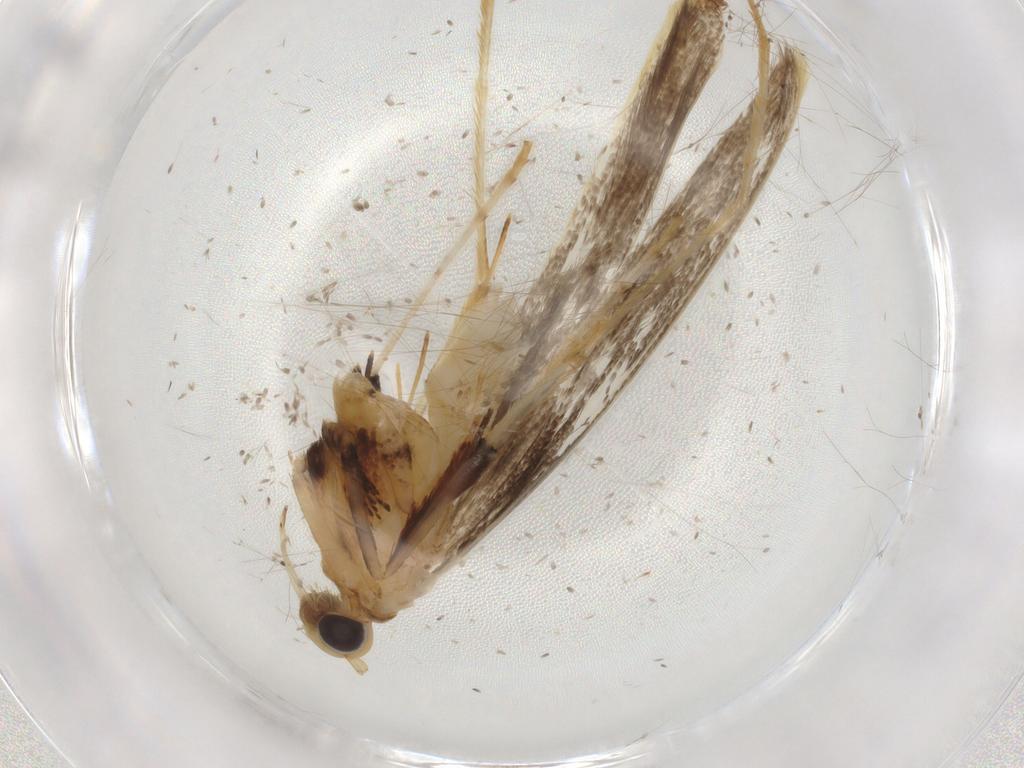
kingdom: Animalia
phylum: Arthropoda
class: Insecta
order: Lepidoptera
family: Gracillariidae
